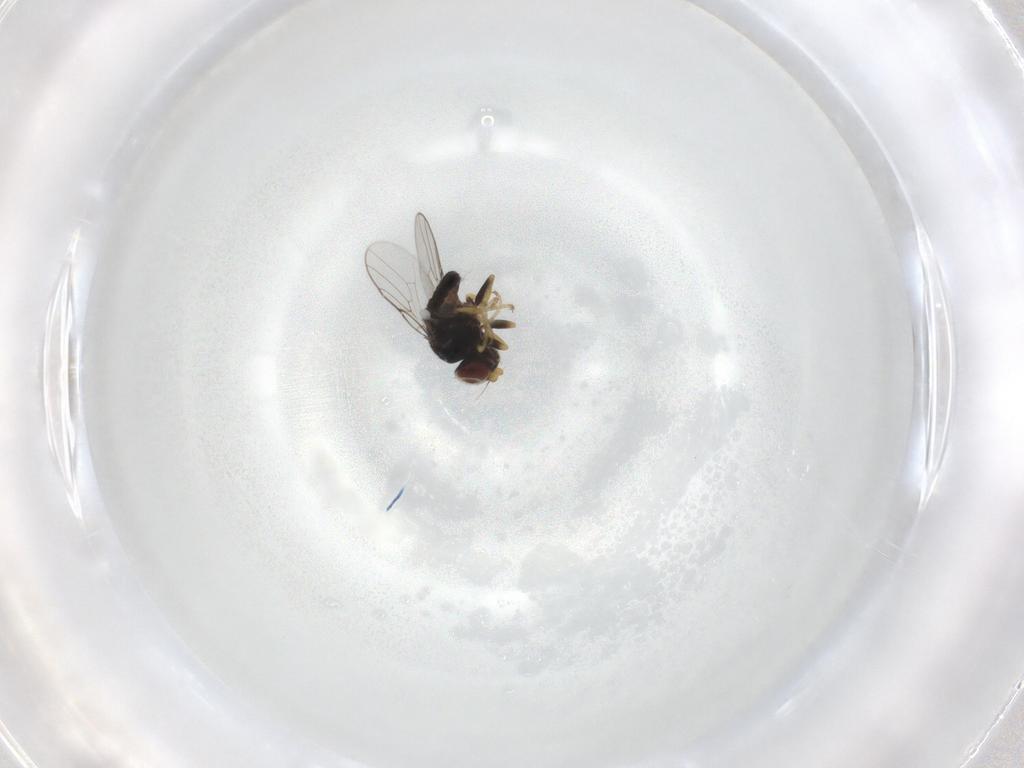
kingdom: Animalia
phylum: Arthropoda
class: Insecta
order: Diptera
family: Chloropidae
